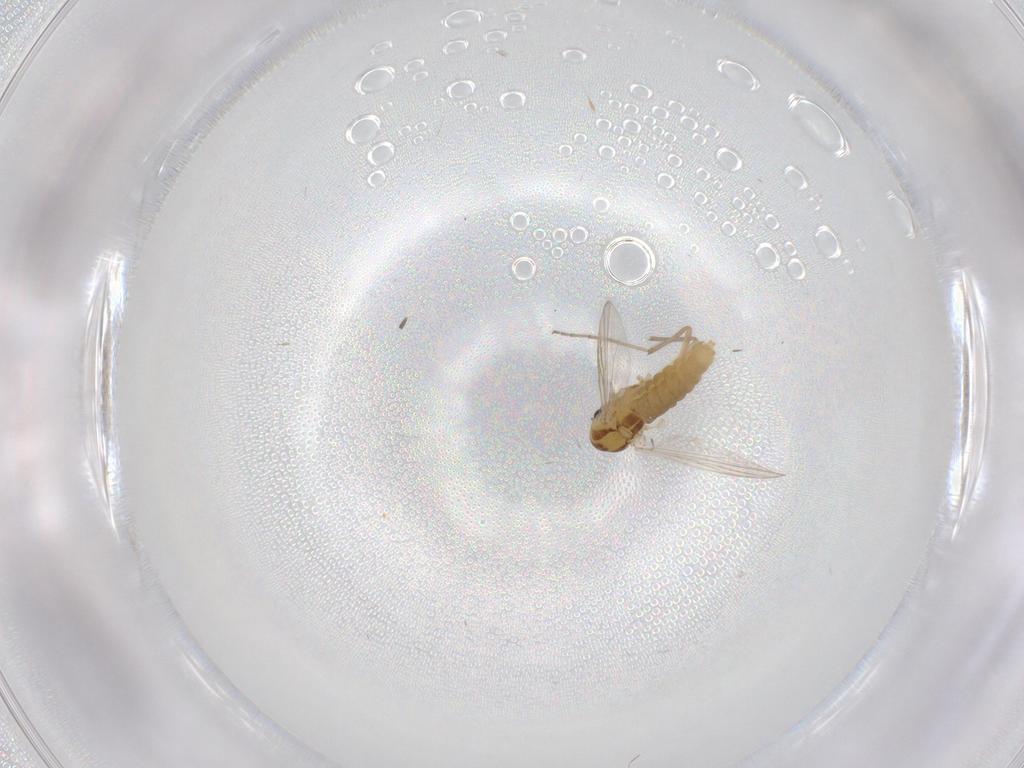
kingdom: Animalia
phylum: Arthropoda
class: Insecta
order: Diptera
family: Chironomidae
